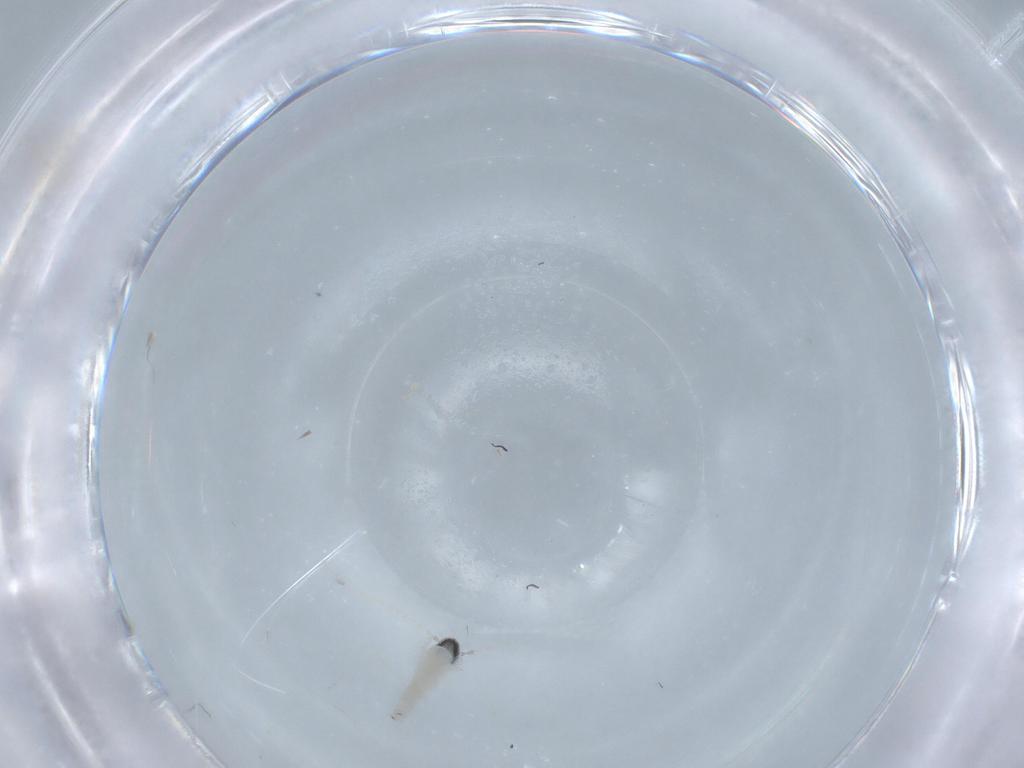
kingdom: Animalia
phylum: Arthropoda
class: Insecta
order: Diptera
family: Cecidomyiidae
